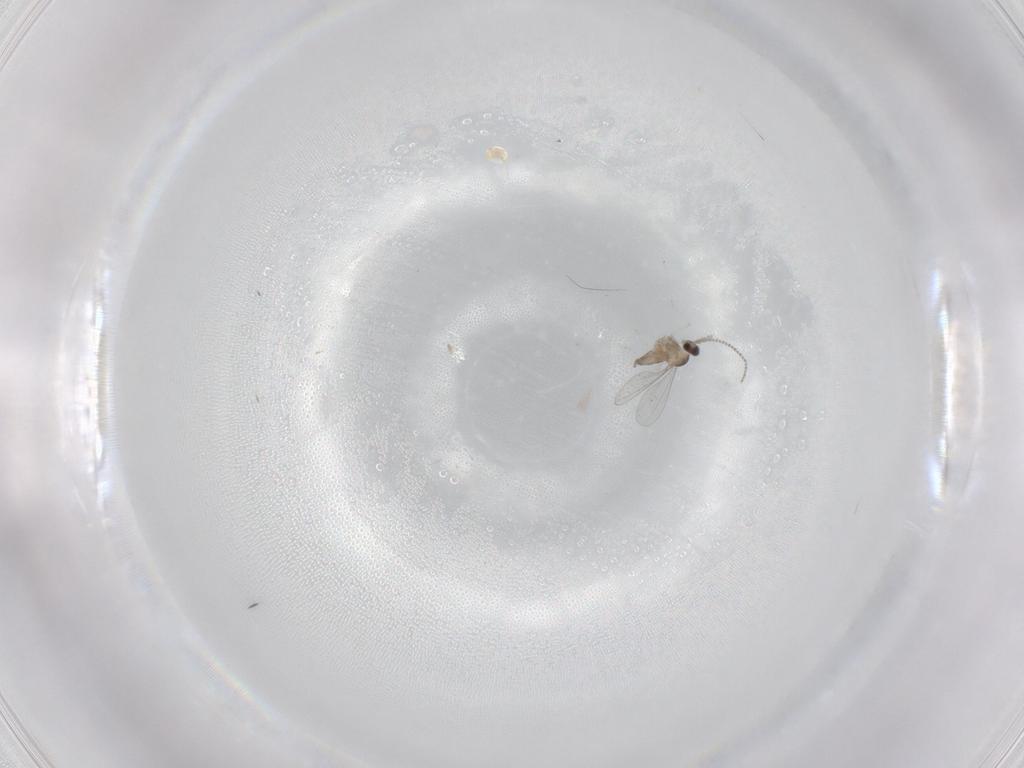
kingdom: Animalia
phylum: Arthropoda
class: Insecta
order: Diptera
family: Cecidomyiidae
